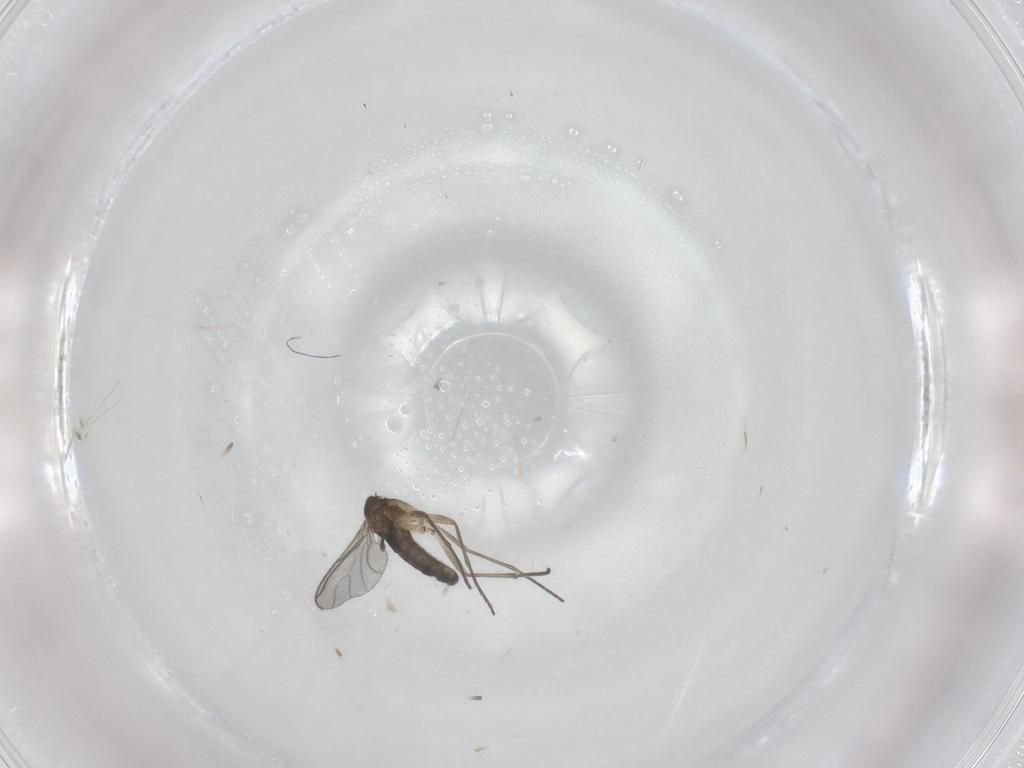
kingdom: Animalia
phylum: Arthropoda
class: Insecta
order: Diptera
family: Sciaridae
